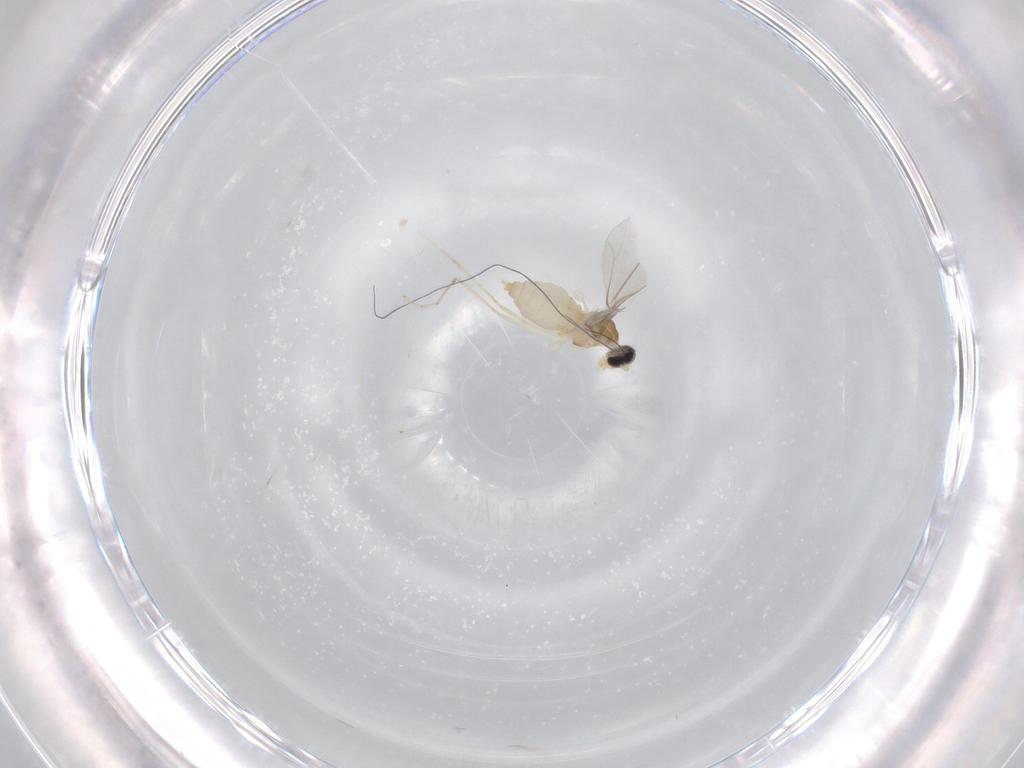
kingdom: Animalia
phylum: Arthropoda
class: Insecta
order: Diptera
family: Cecidomyiidae
